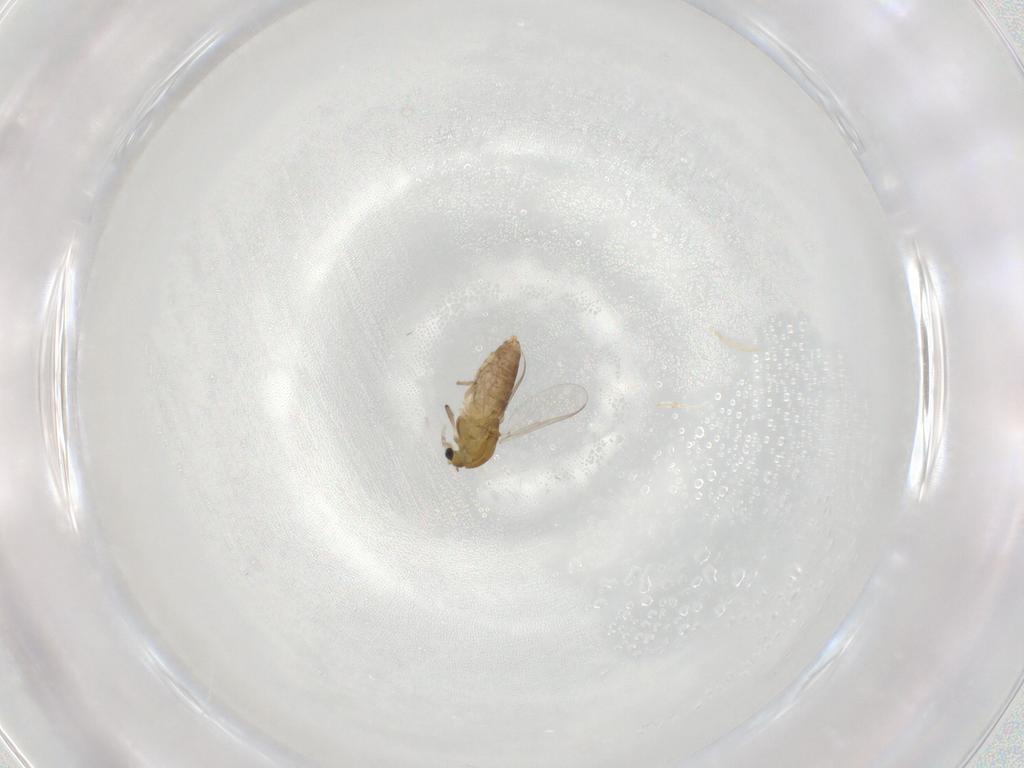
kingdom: Animalia
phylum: Arthropoda
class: Insecta
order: Diptera
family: Chironomidae
